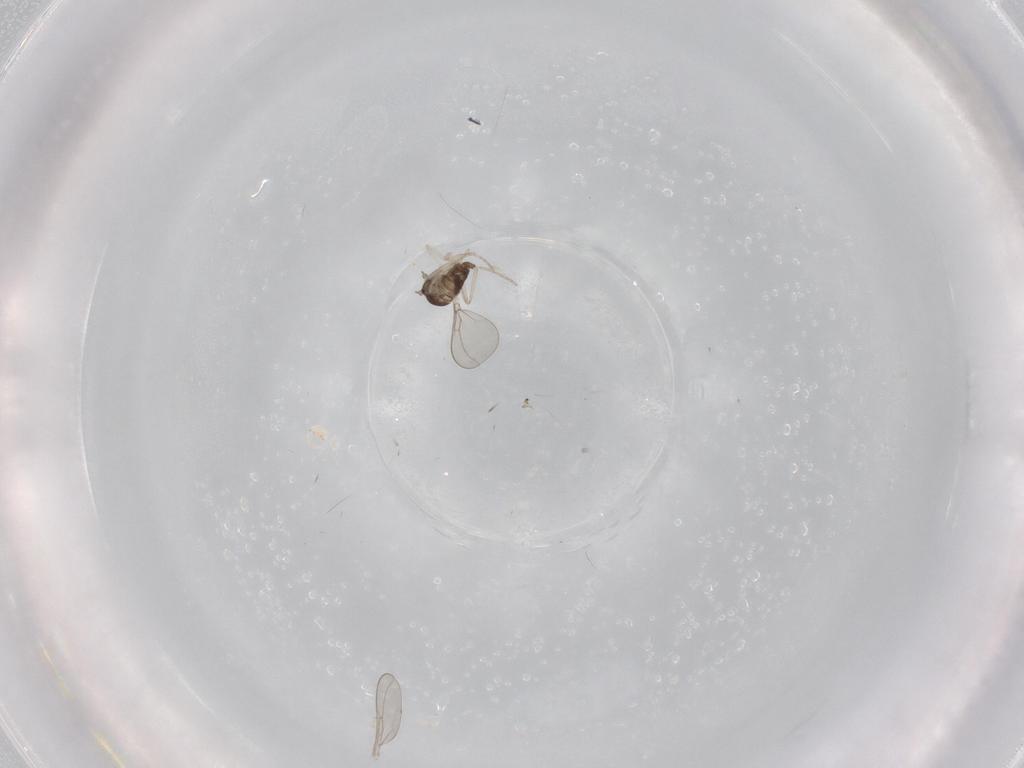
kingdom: Animalia
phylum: Arthropoda
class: Insecta
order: Diptera
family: Cecidomyiidae
